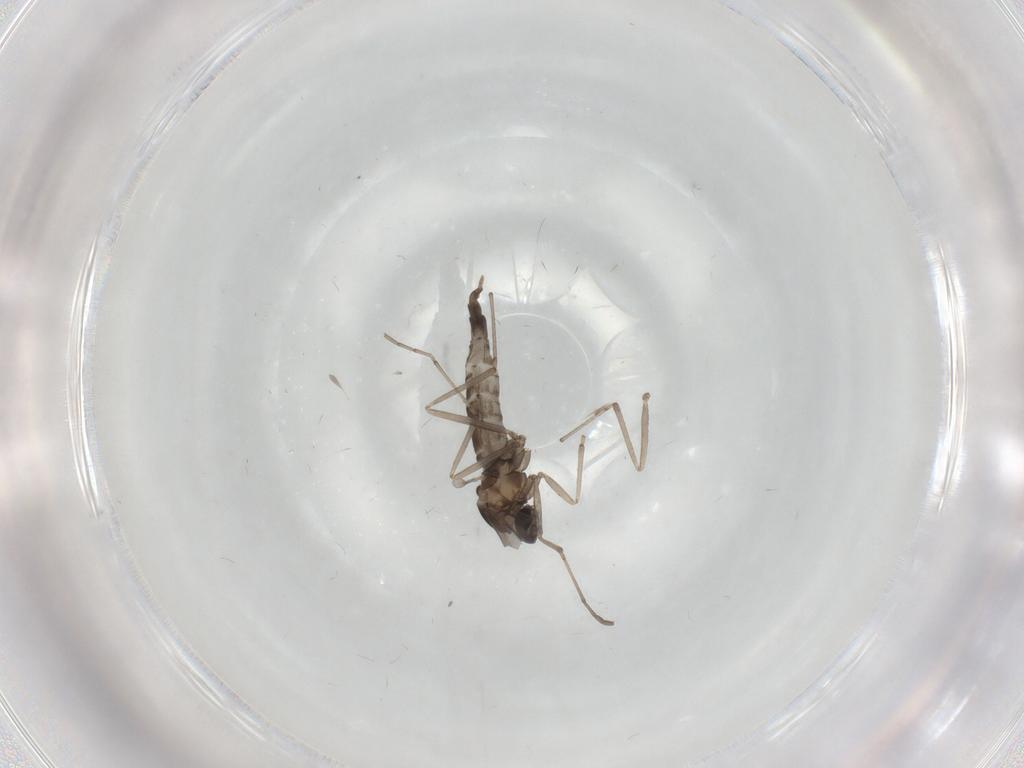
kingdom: Animalia
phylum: Arthropoda
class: Insecta
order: Diptera
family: Cecidomyiidae
